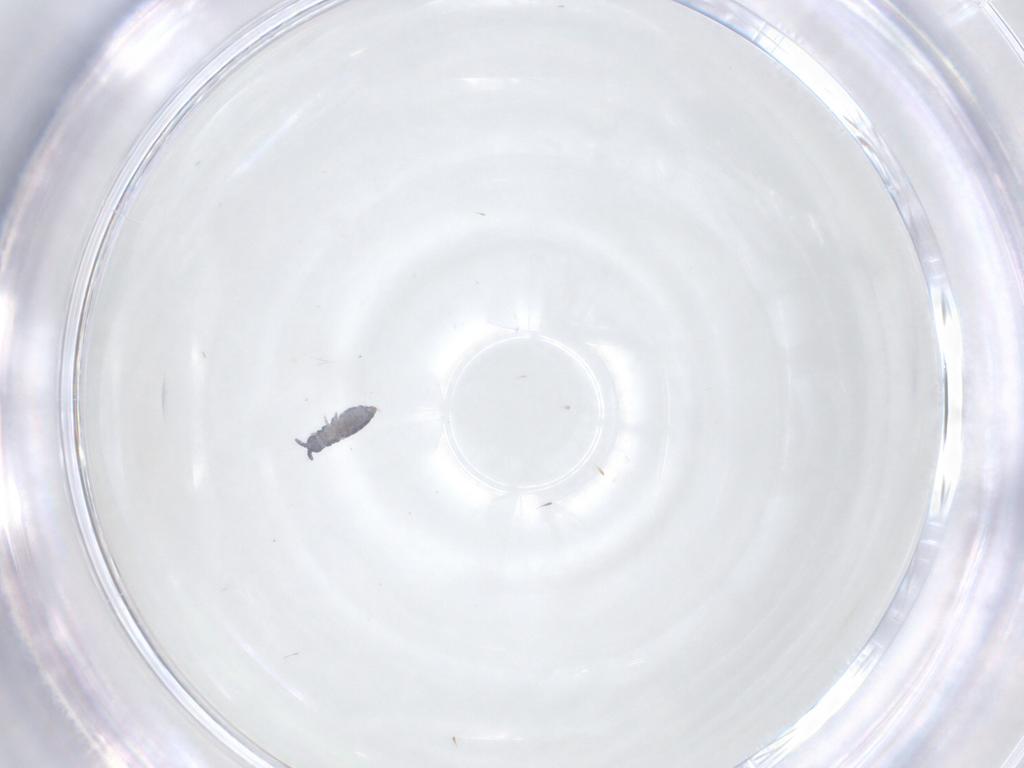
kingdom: Animalia
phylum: Arthropoda
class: Collembola
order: Poduromorpha
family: Hypogastruridae
